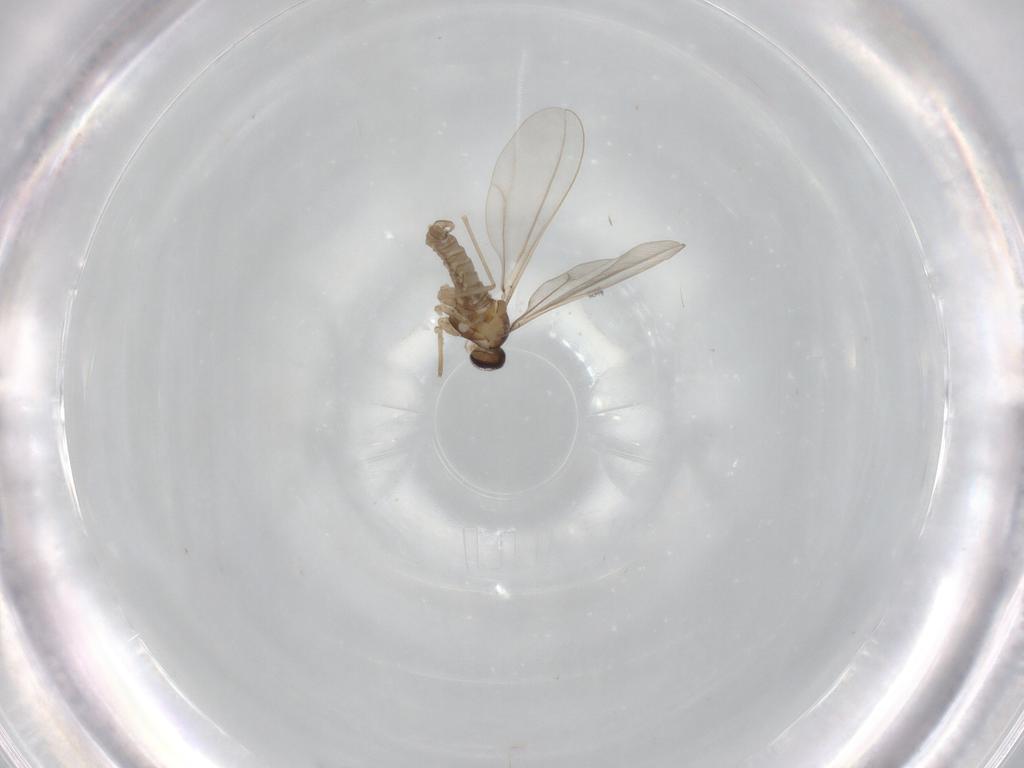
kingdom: Animalia
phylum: Arthropoda
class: Insecta
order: Diptera
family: Cecidomyiidae
